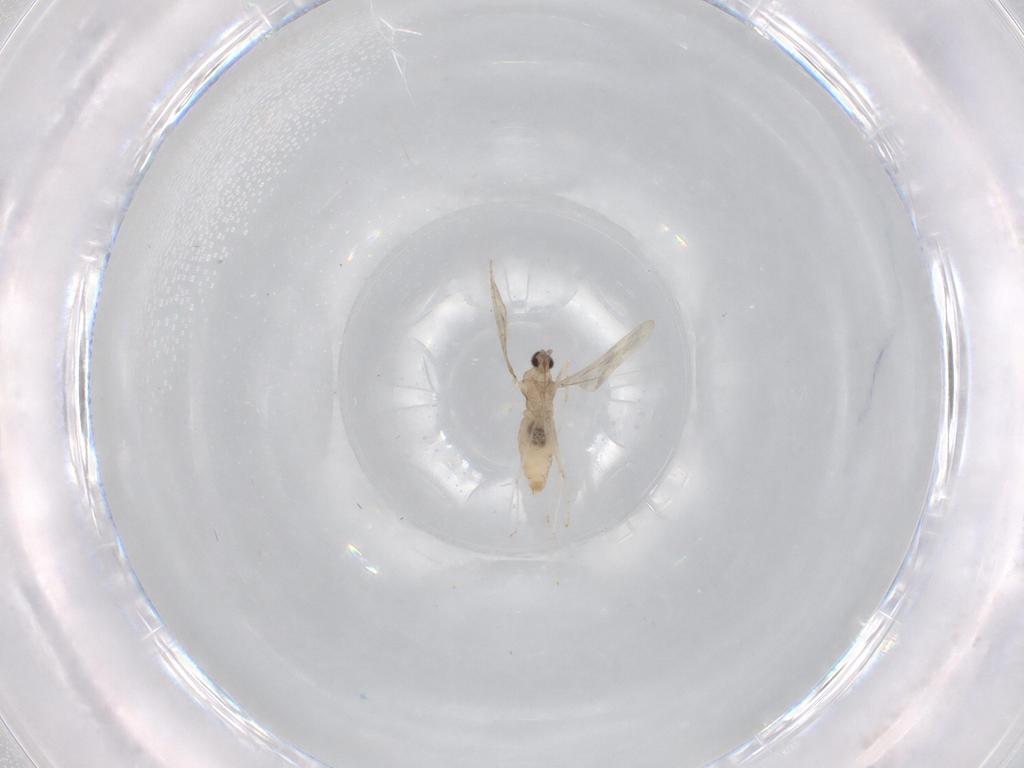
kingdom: Animalia
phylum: Arthropoda
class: Insecta
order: Diptera
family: Cecidomyiidae
